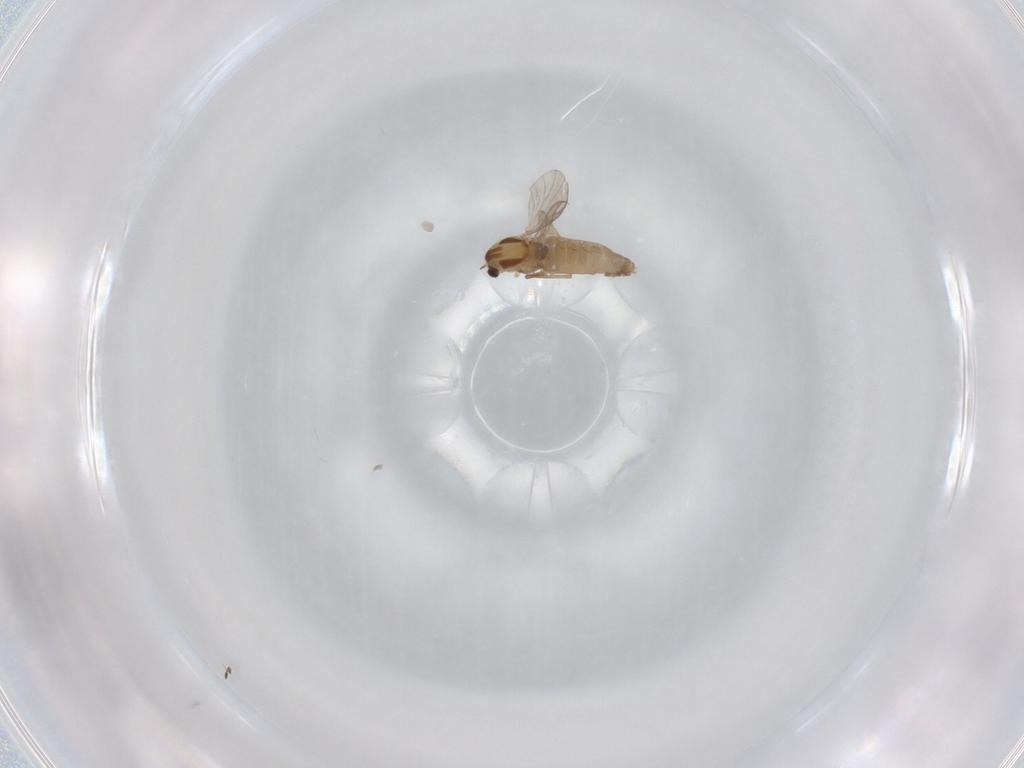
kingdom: Animalia
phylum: Arthropoda
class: Insecta
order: Diptera
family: Chironomidae
